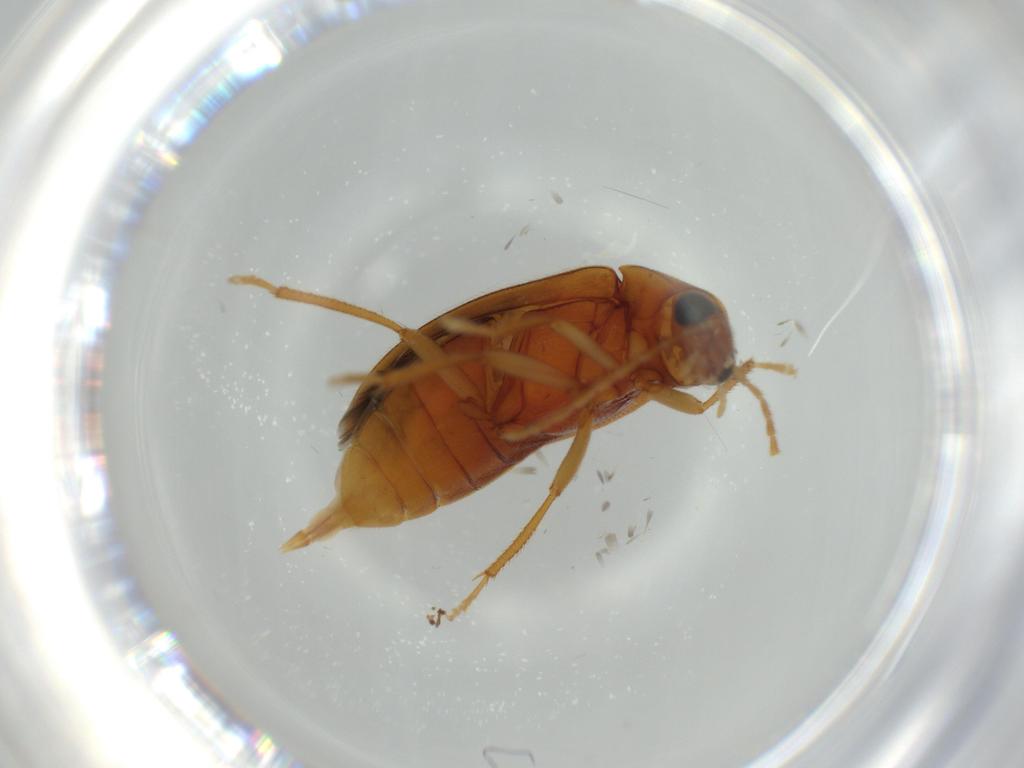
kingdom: Animalia
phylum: Arthropoda
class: Insecta
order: Coleoptera
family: Ptilodactylidae
